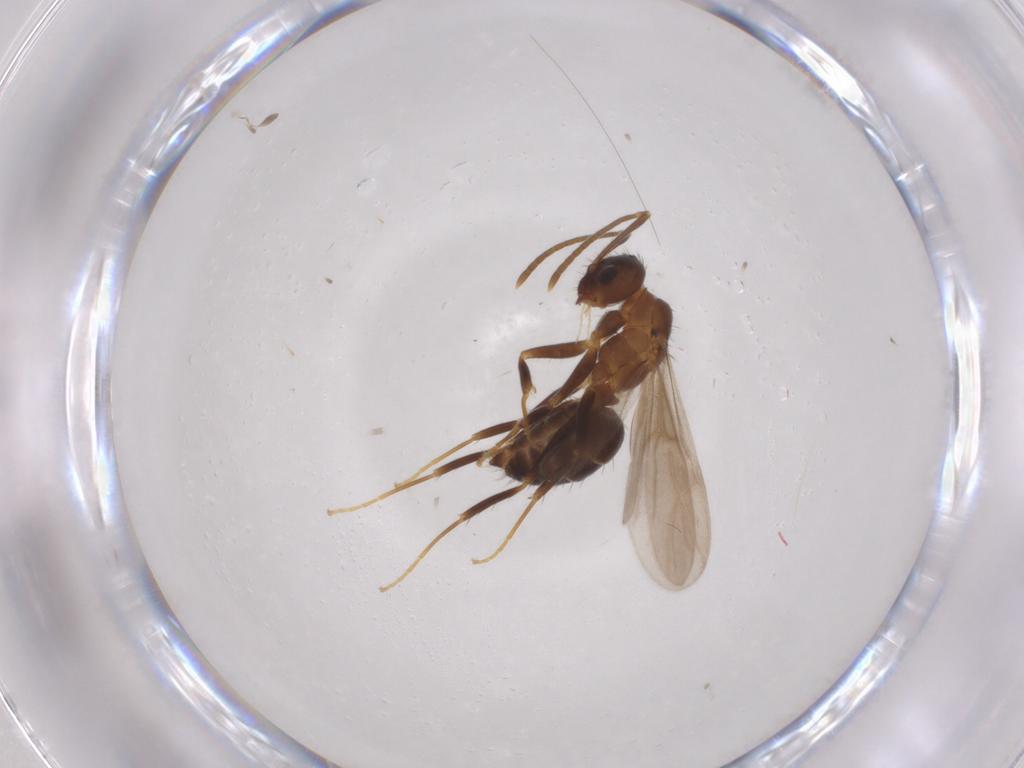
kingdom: Animalia
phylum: Arthropoda
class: Insecta
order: Hymenoptera
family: Formicidae
